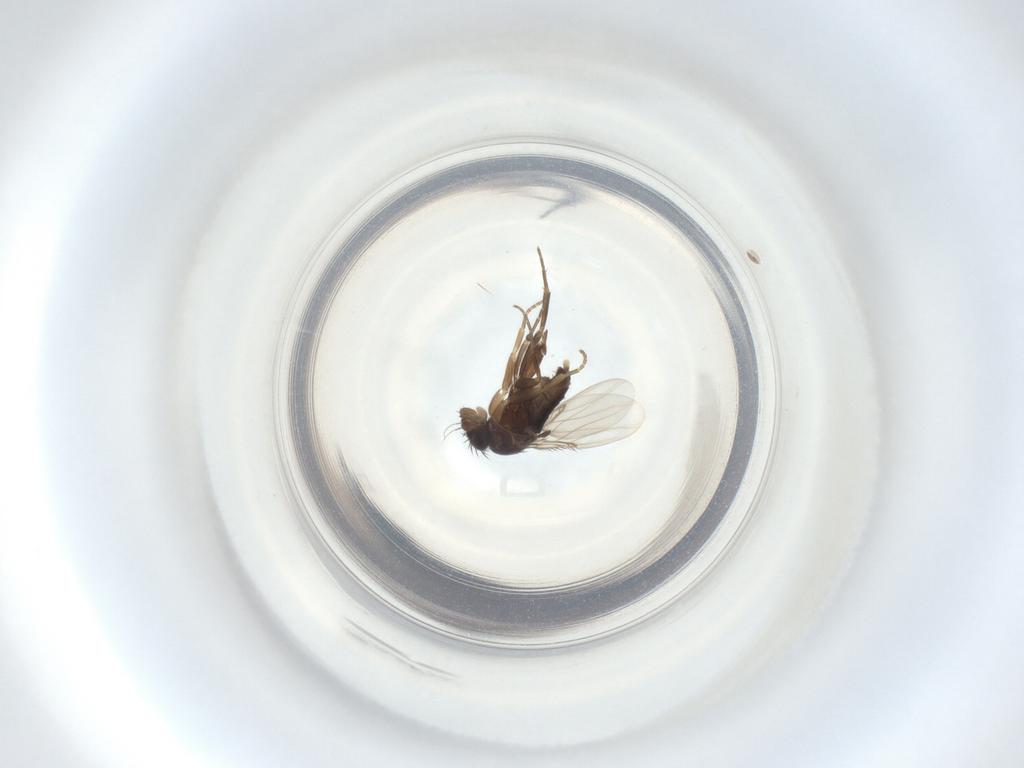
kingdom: Animalia
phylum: Arthropoda
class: Insecta
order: Diptera
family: Phoridae
